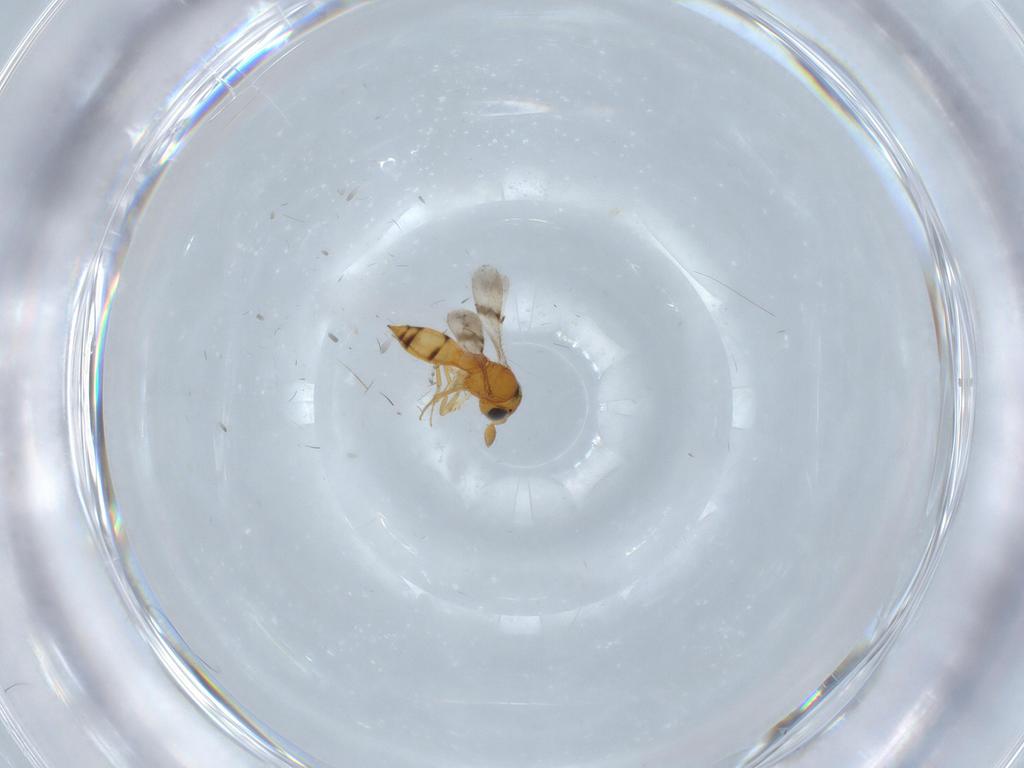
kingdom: Animalia
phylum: Arthropoda
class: Insecta
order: Hymenoptera
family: Scelionidae
